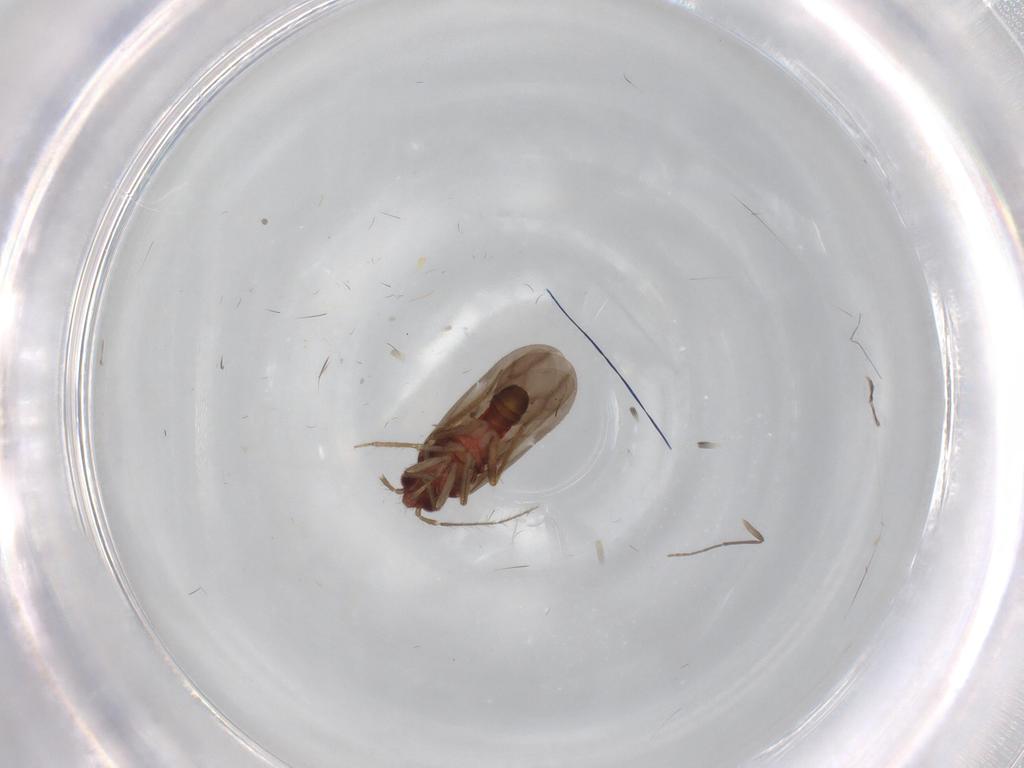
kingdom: Animalia
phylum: Arthropoda
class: Insecta
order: Hemiptera
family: Ceratocombidae
